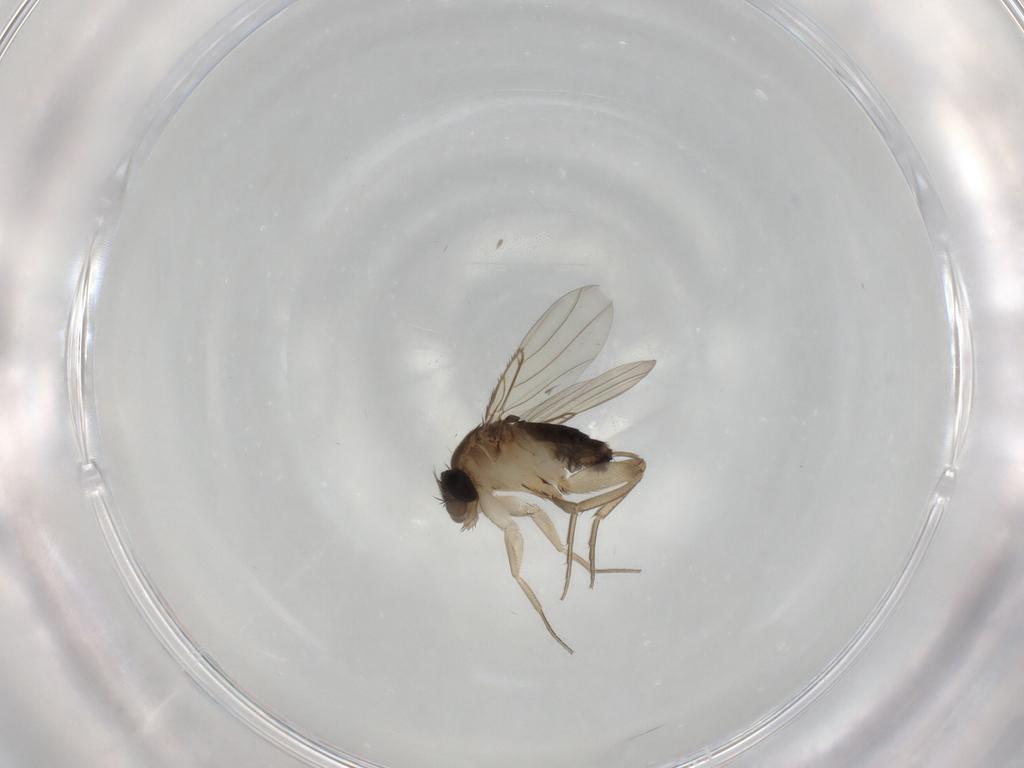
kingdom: Animalia
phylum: Arthropoda
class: Insecta
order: Diptera
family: Phoridae
